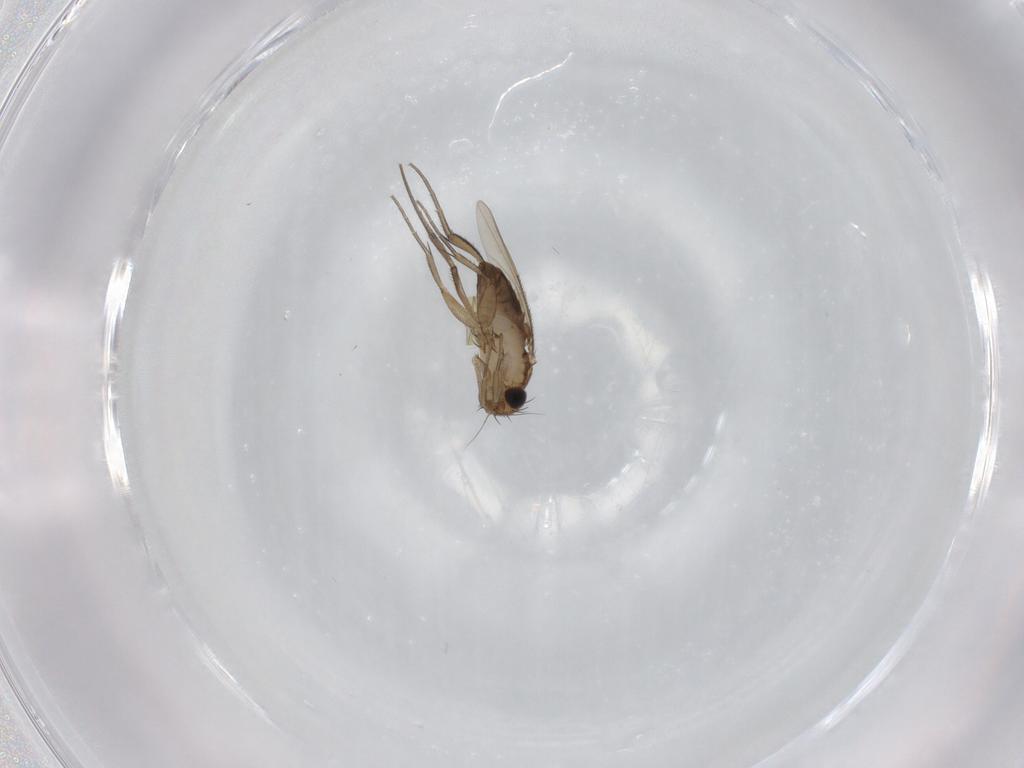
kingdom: Animalia
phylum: Arthropoda
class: Insecta
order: Diptera
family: Phoridae
